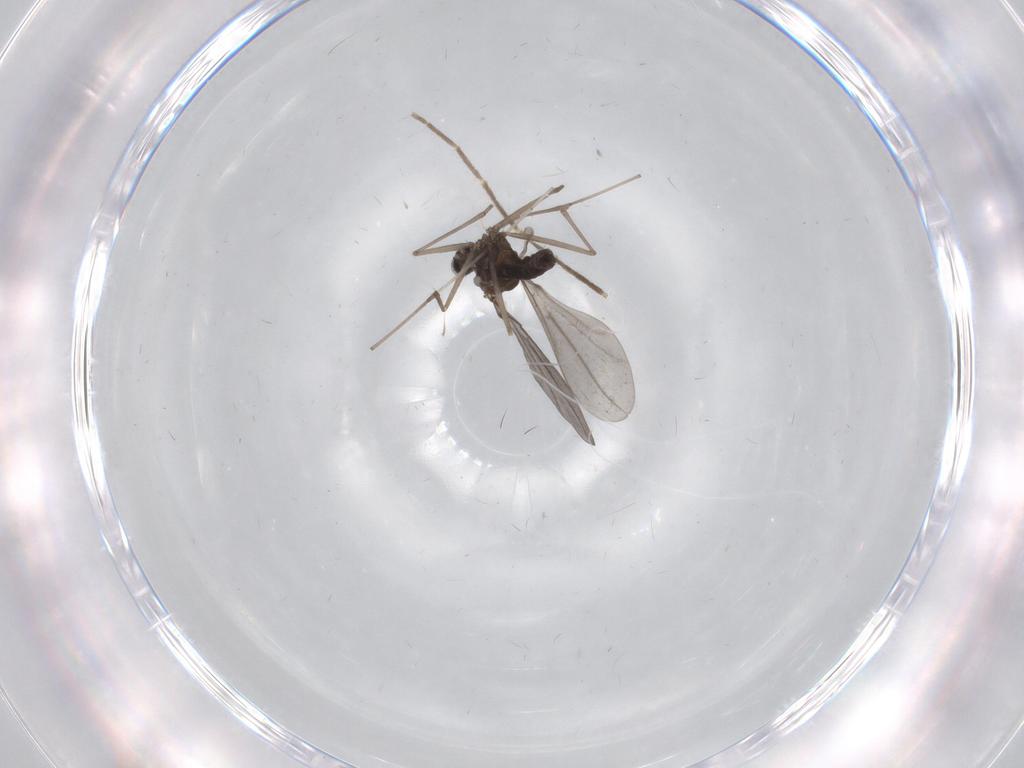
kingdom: Animalia
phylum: Arthropoda
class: Insecta
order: Diptera
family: Cecidomyiidae
